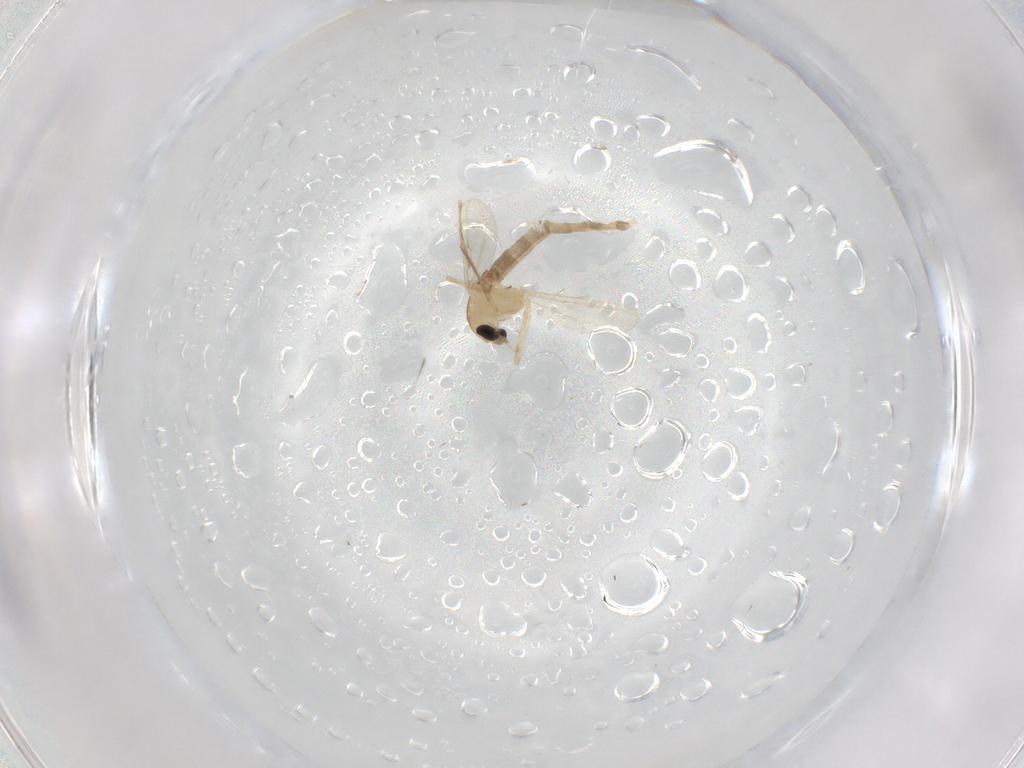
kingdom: Animalia
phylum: Arthropoda
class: Insecta
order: Diptera
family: Chironomidae
